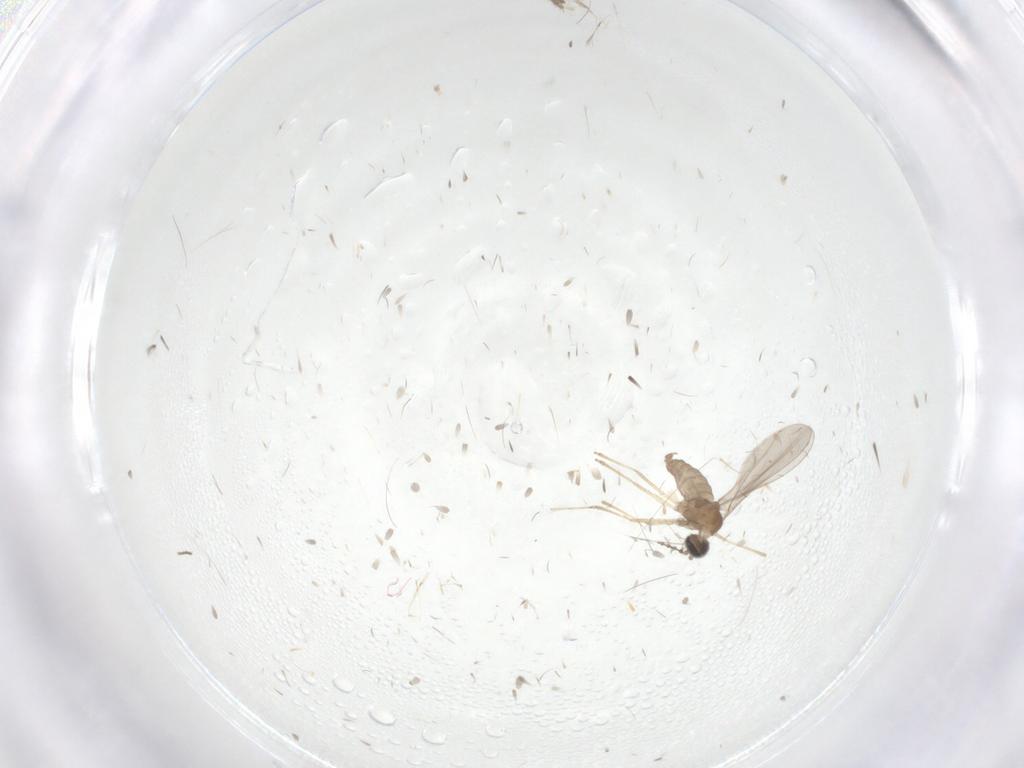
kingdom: Animalia
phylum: Arthropoda
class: Insecta
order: Diptera
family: Cecidomyiidae
